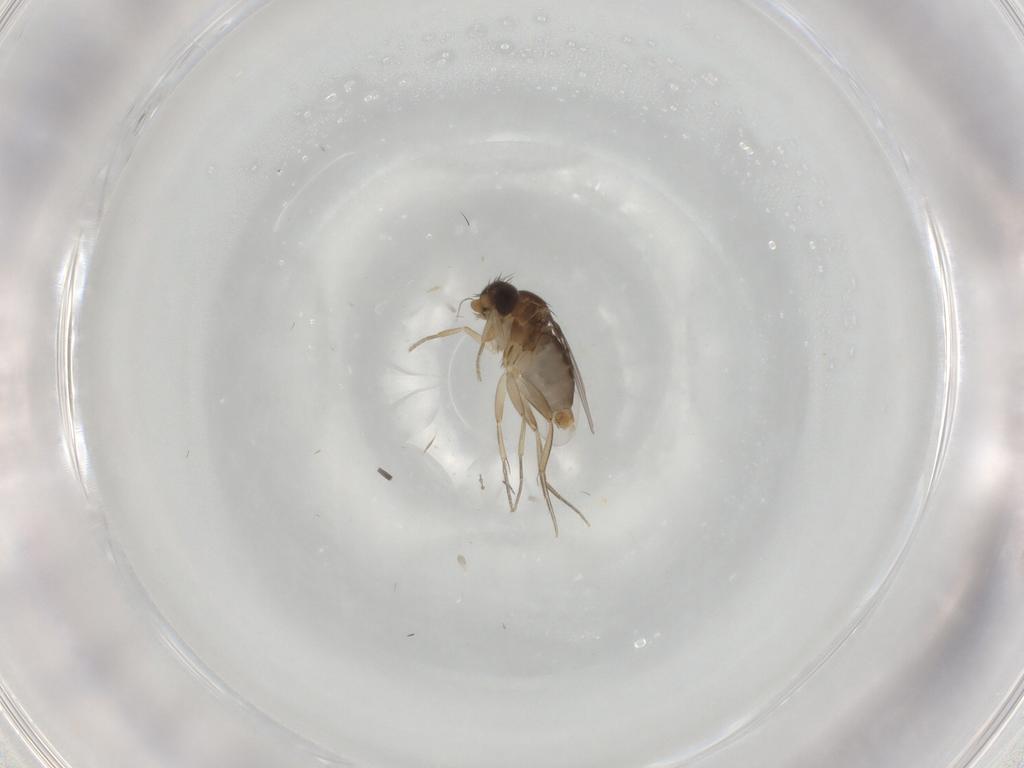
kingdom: Animalia
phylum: Arthropoda
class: Insecta
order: Diptera
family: Phoridae
